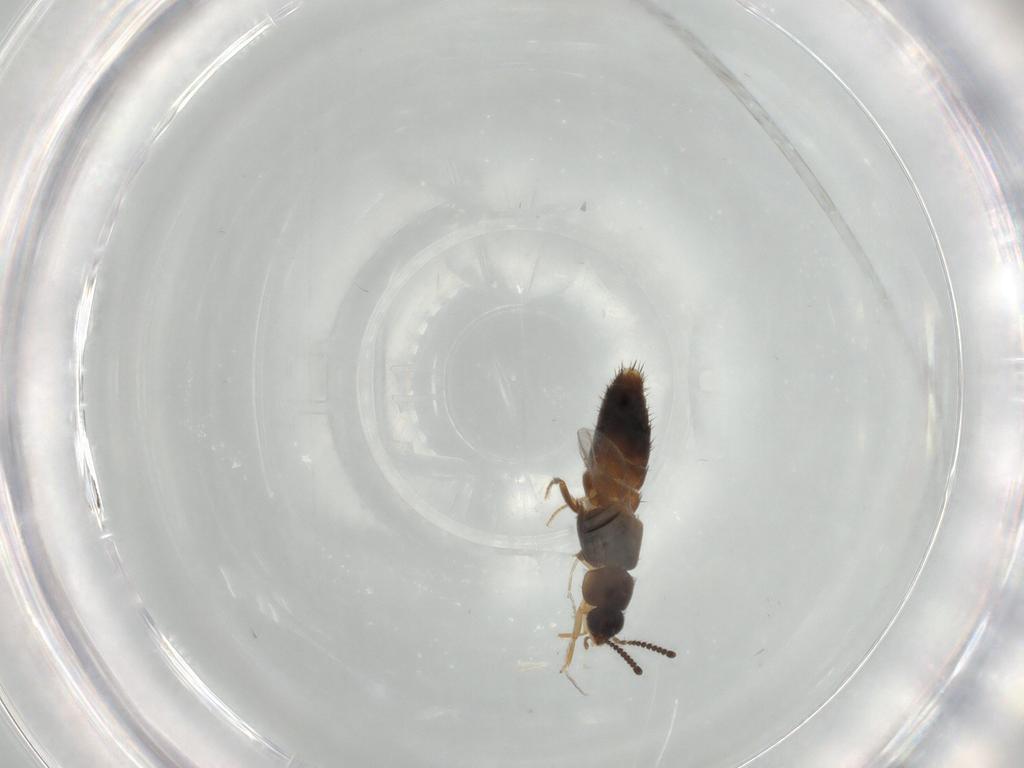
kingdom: Animalia
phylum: Arthropoda
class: Insecta
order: Coleoptera
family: Staphylinidae
